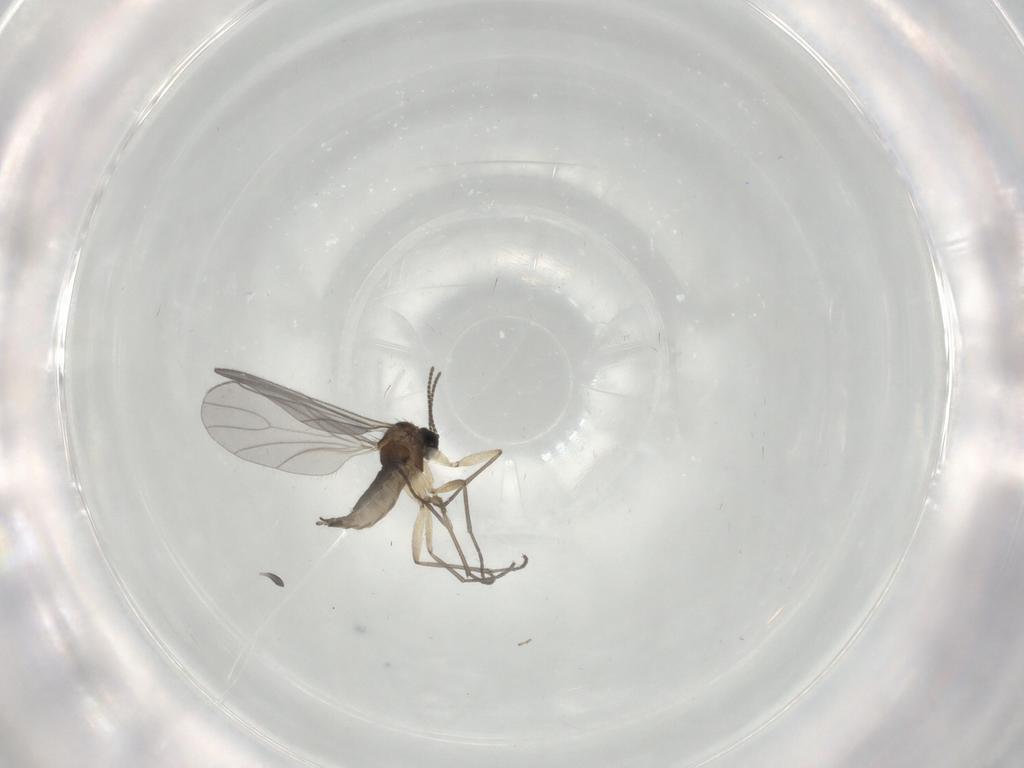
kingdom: Animalia
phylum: Arthropoda
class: Insecta
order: Diptera
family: Sciaridae
